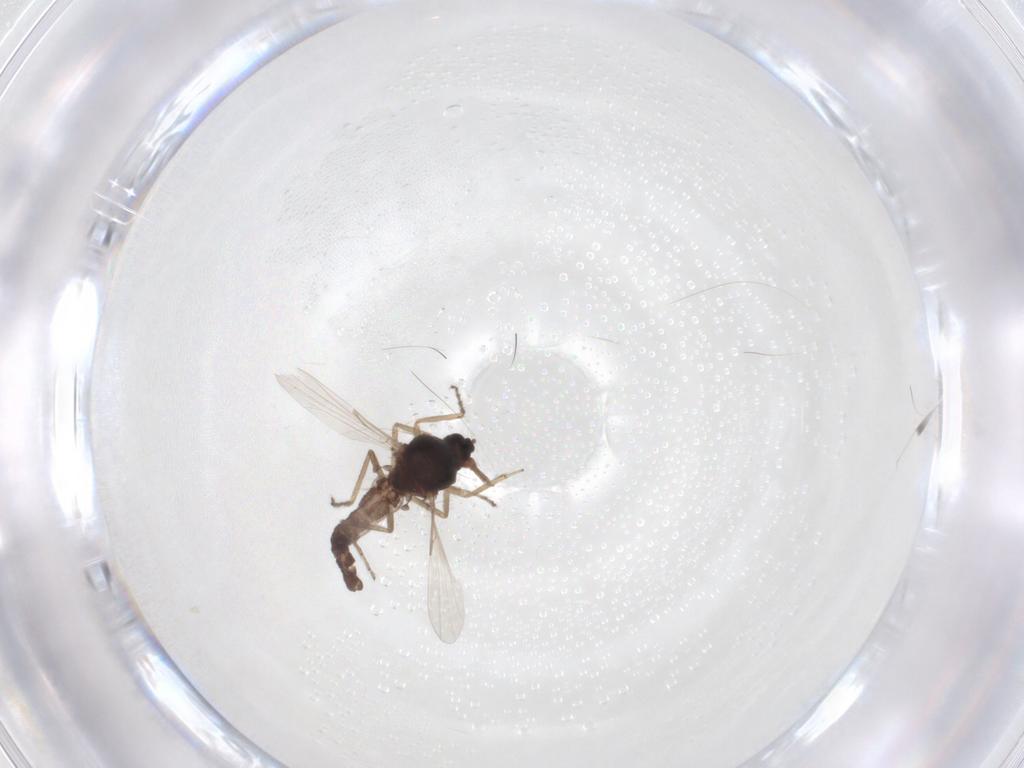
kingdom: Animalia
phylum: Arthropoda
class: Insecta
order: Diptera
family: Ceratopogonidae
